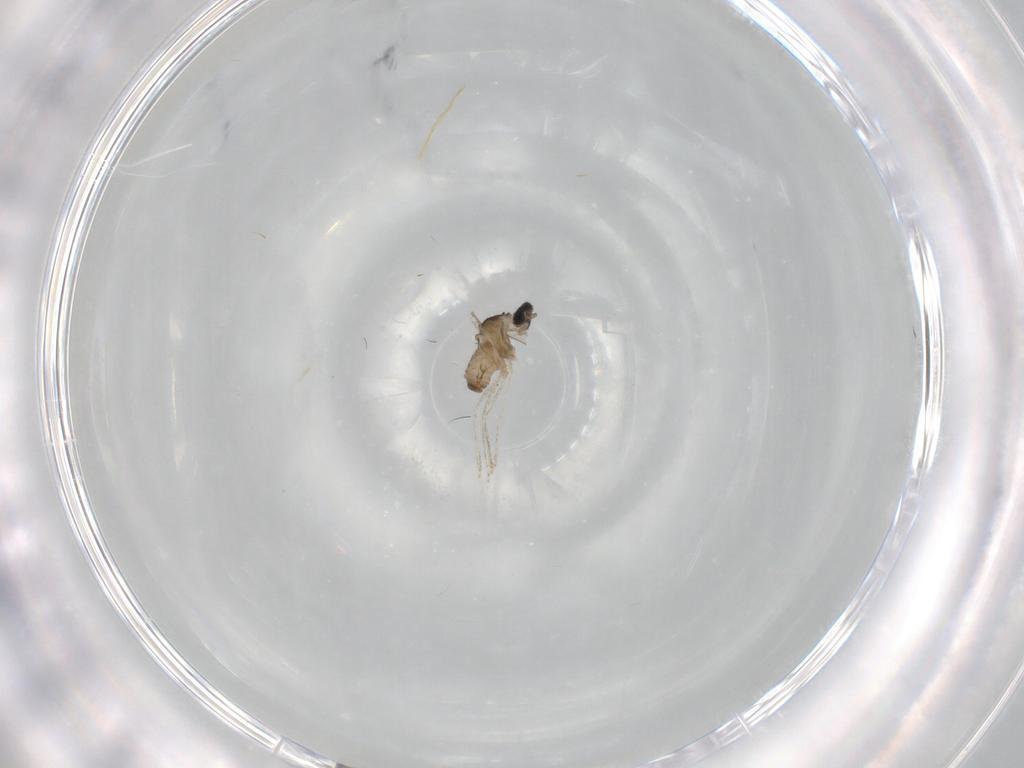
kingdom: Animalia
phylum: Arthropoda
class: Insecta
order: Diptera
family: Cecidomyiidae
